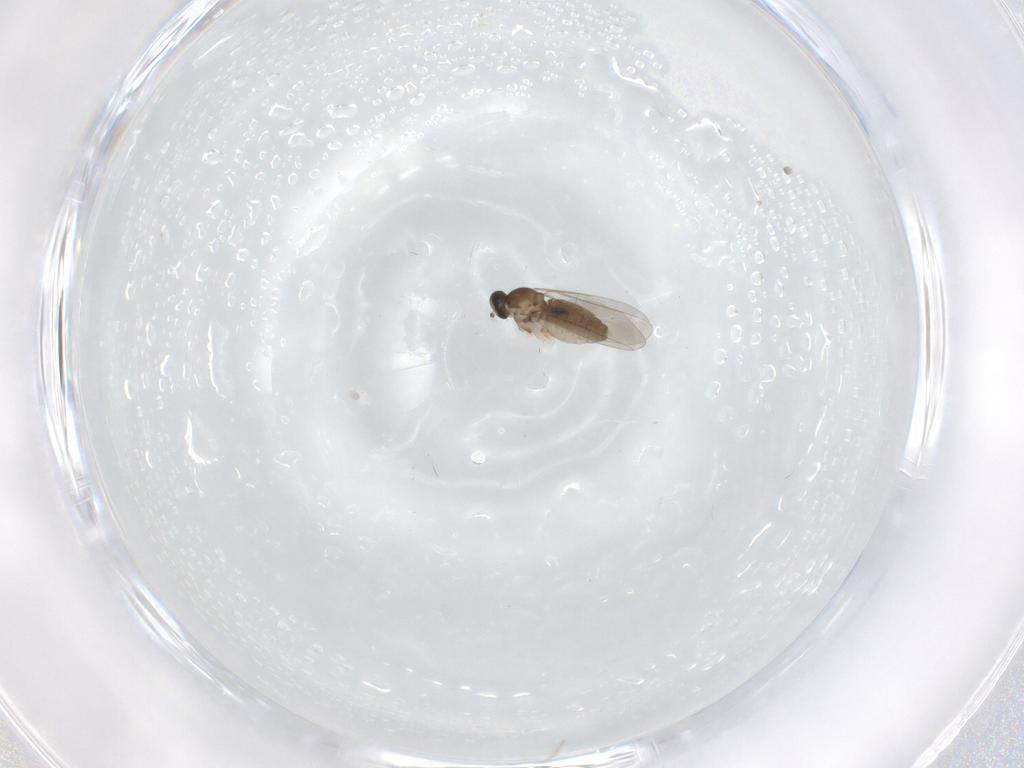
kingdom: Animalia
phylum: Arthropoda
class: Insecta
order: Diptera
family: Cecidomyiidae
